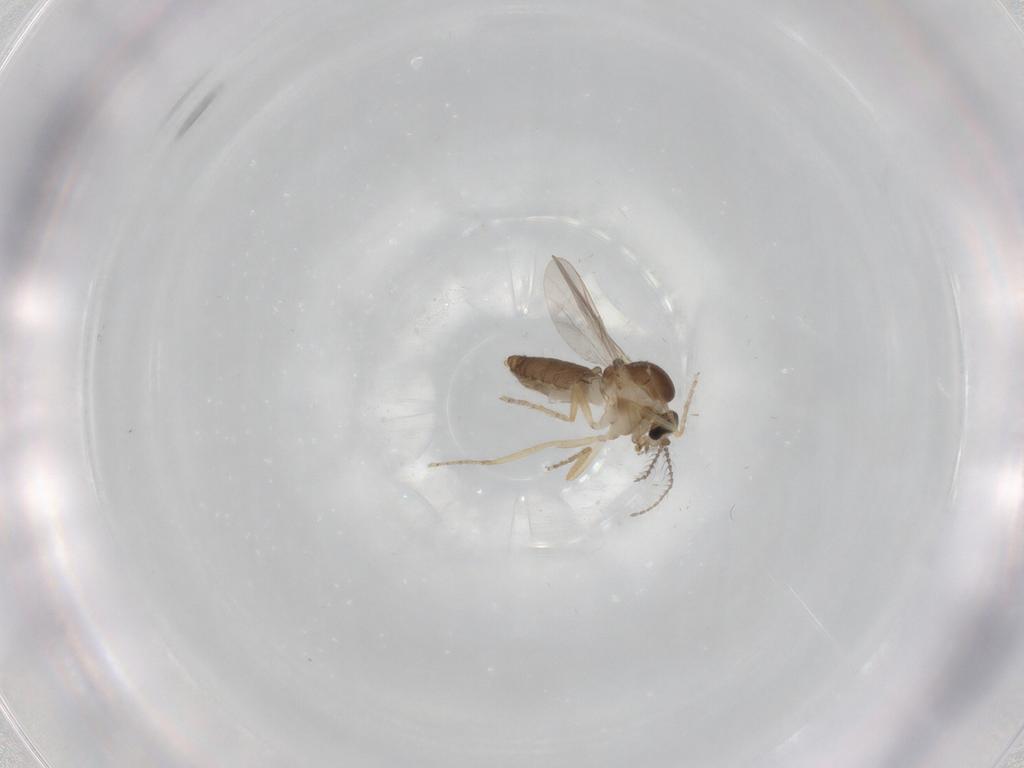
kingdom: Animalia
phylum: Arthropoda
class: Insecta
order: Diptera
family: Ceratopogonidae
